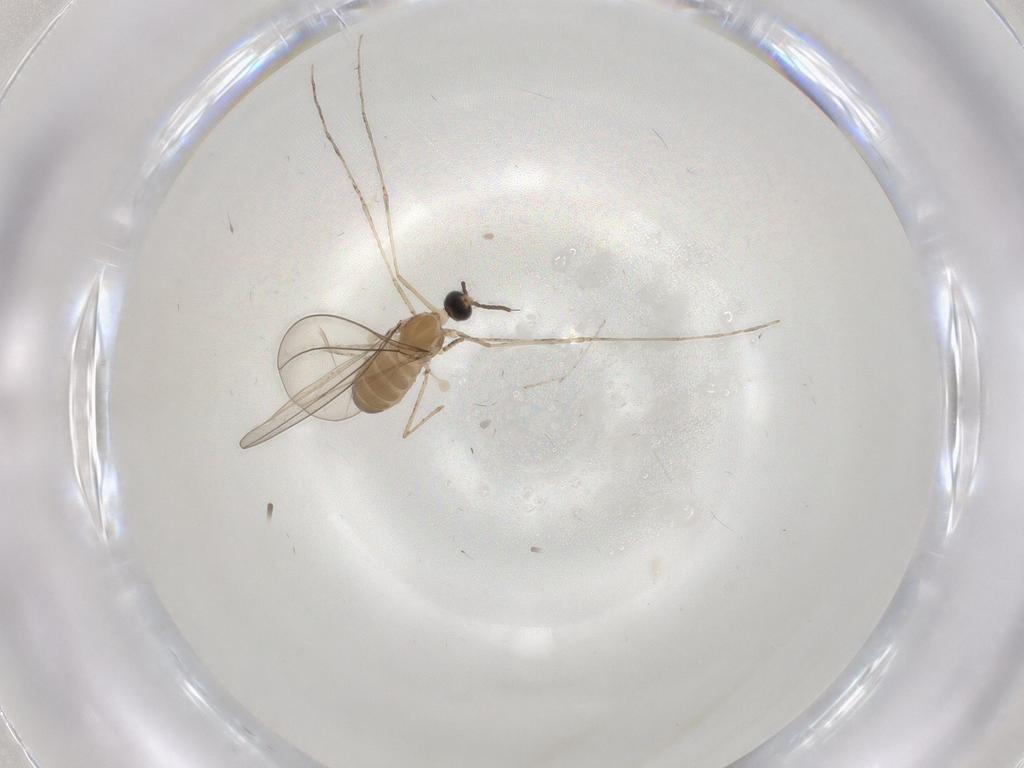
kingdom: Animalia
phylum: Arthropoda
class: Insecta
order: Diptera
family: Cecidomyiidae
